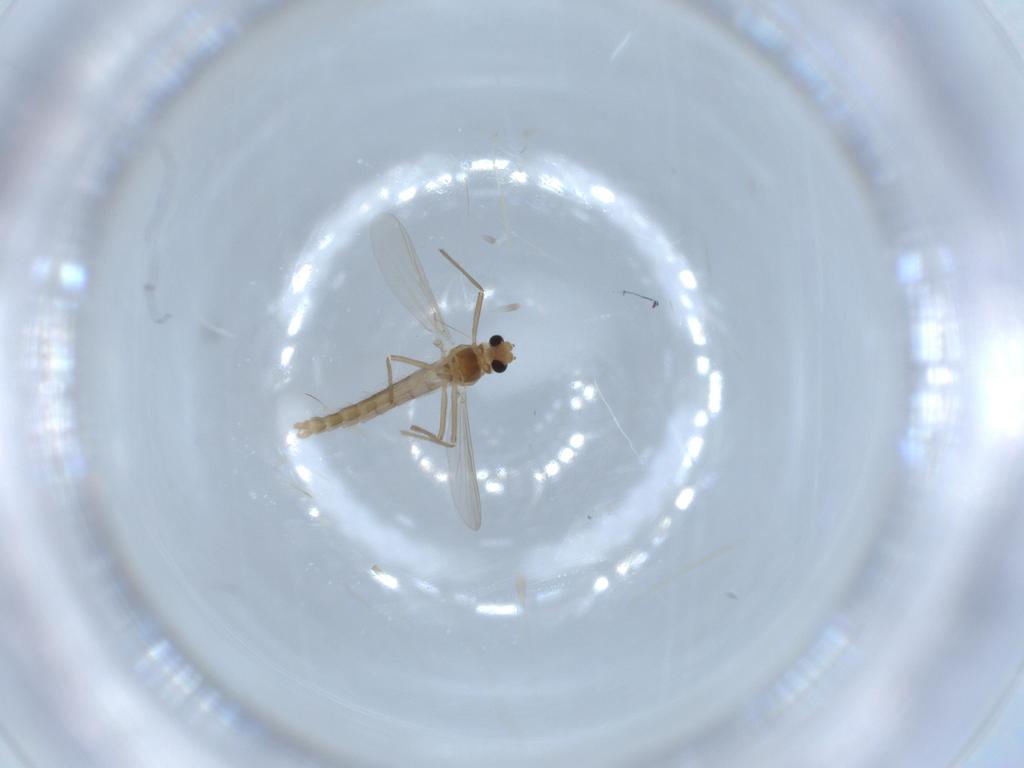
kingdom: Animalia
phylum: Arthropoda
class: Insecta
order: Diptera
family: Chironomidae
